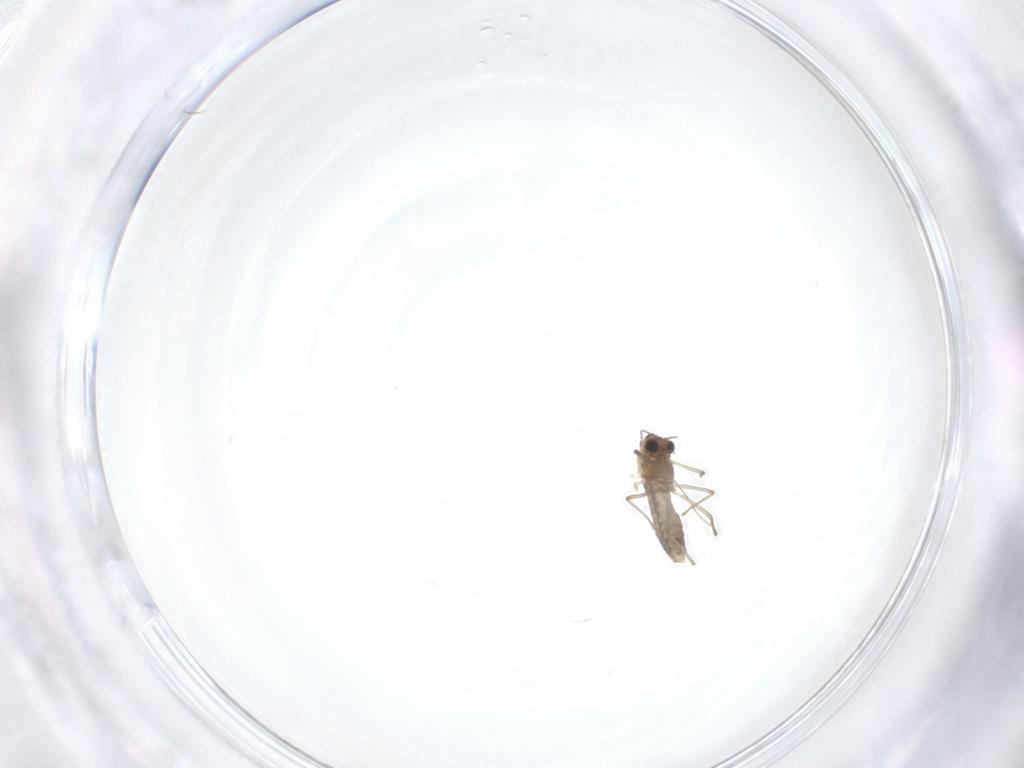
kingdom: Animalia
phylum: Arthropoda
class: Insecta
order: Diptera
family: Chironomidae
